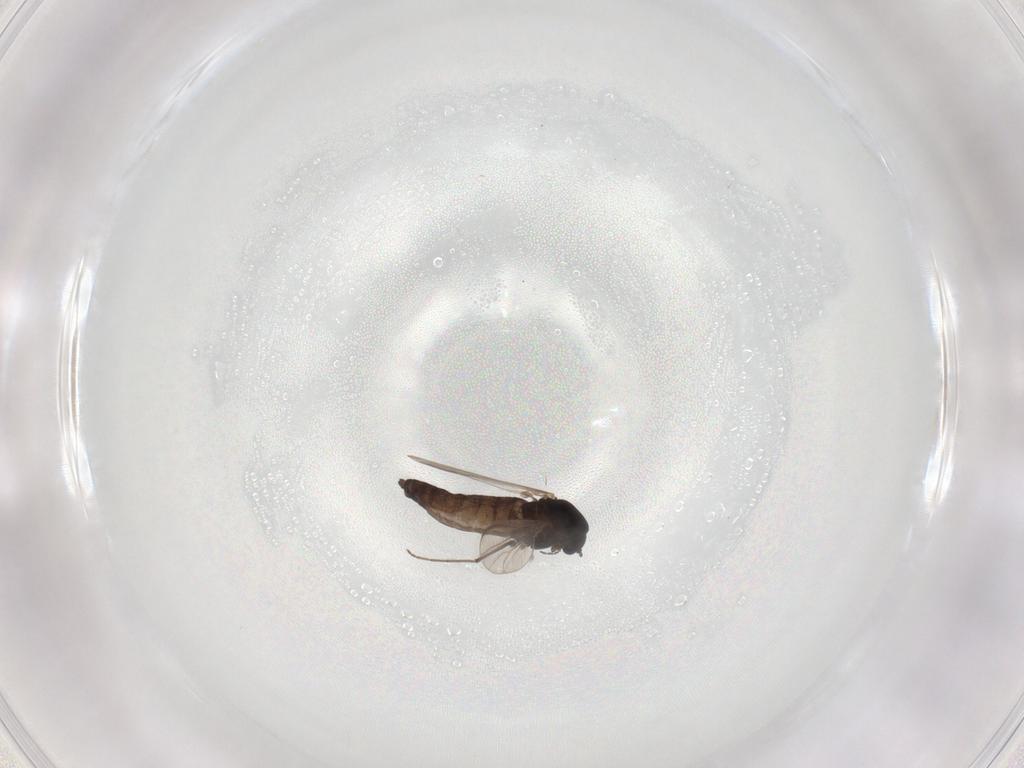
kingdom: Animalia
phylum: Arthropoda
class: Insecta
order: Diptera
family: Chironomidae
